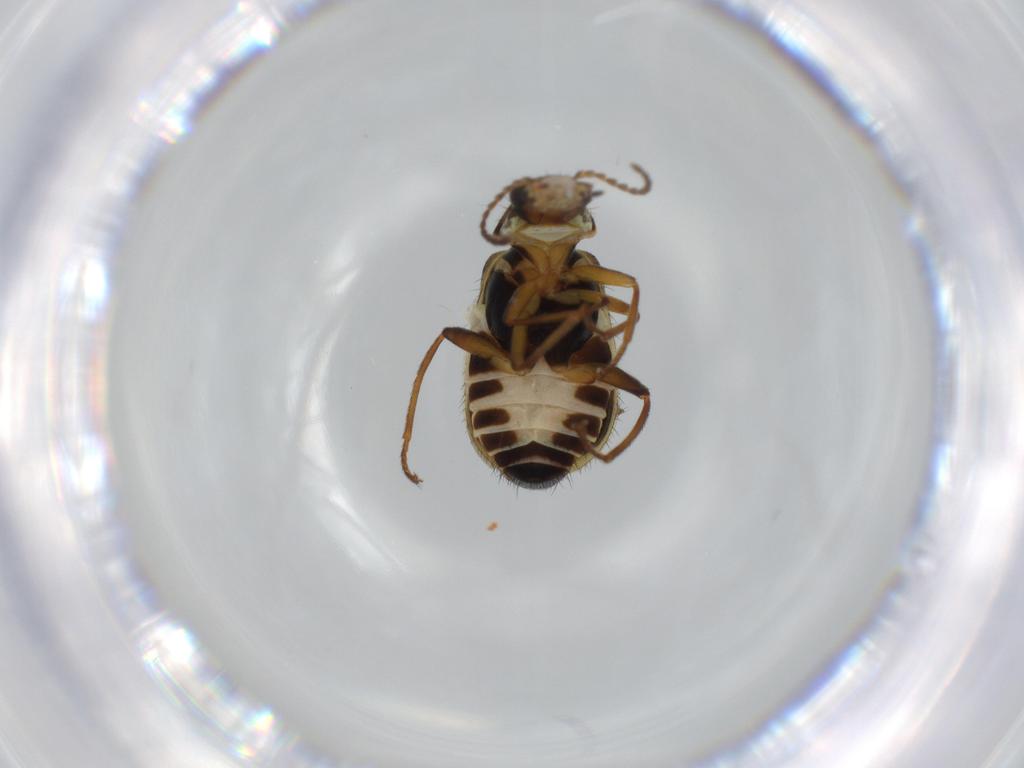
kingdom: Animalia
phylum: Arthropoda
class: Insecta
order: Coleoptera
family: Melyridae
